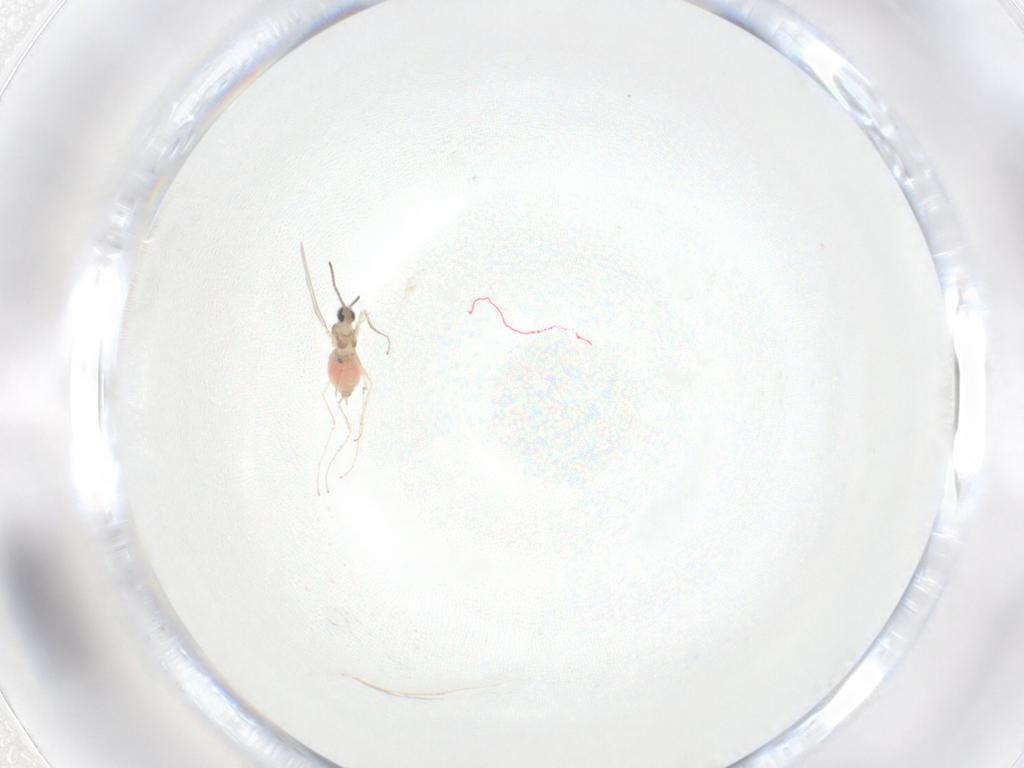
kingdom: Animalia
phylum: Arthropoda
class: Insecta
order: Diptera
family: Cecidomyiidae
